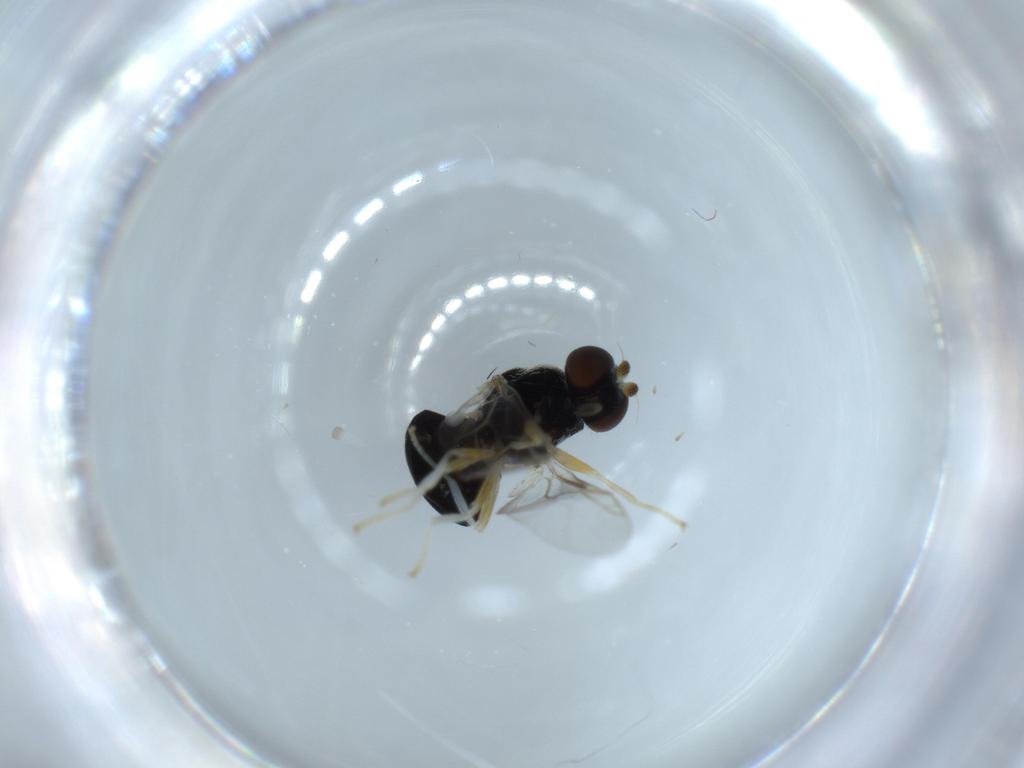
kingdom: Animalia
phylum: Arthropoda
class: Insecta
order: Diptera
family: Stratiomyidae
